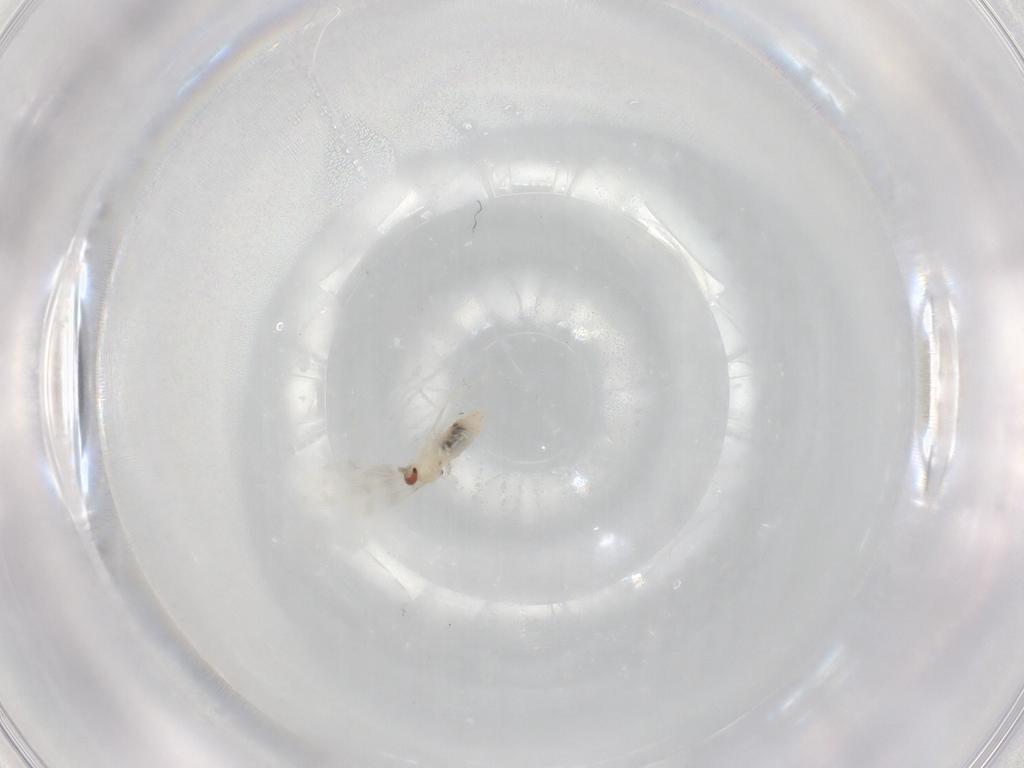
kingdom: Animalia
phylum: Arthropoda
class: Insecta
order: Diptera
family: Cecidomyiidae
